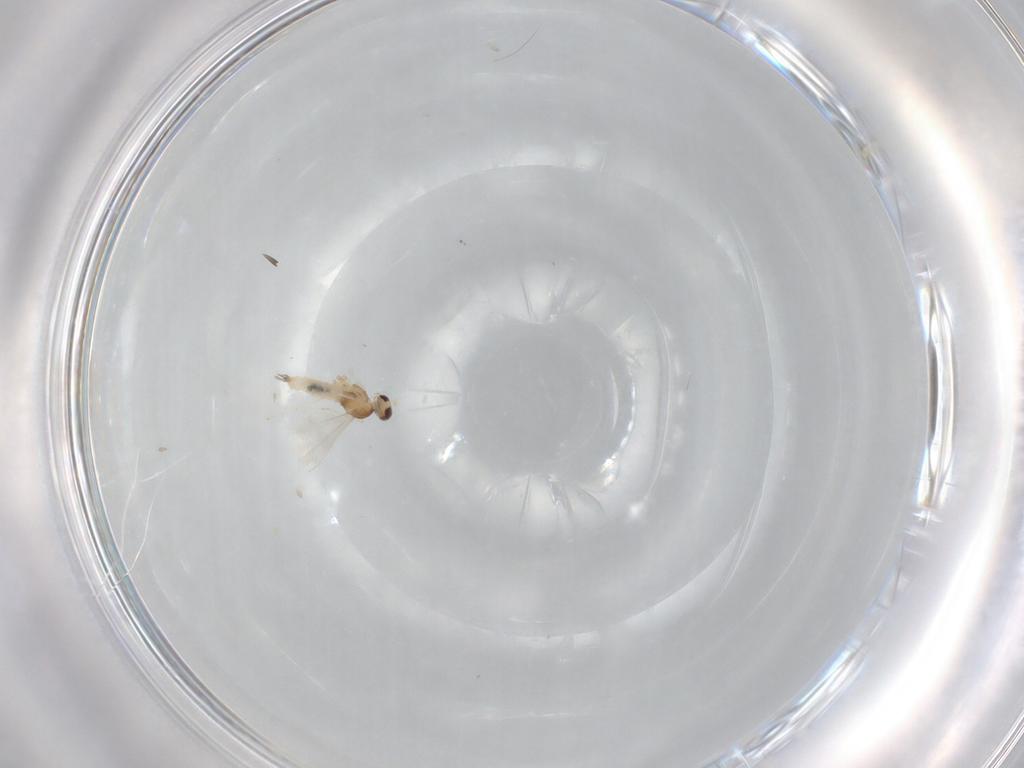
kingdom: Animalia
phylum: Arthropoda
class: Insecta
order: Diptera
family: Cecidomyiidae
